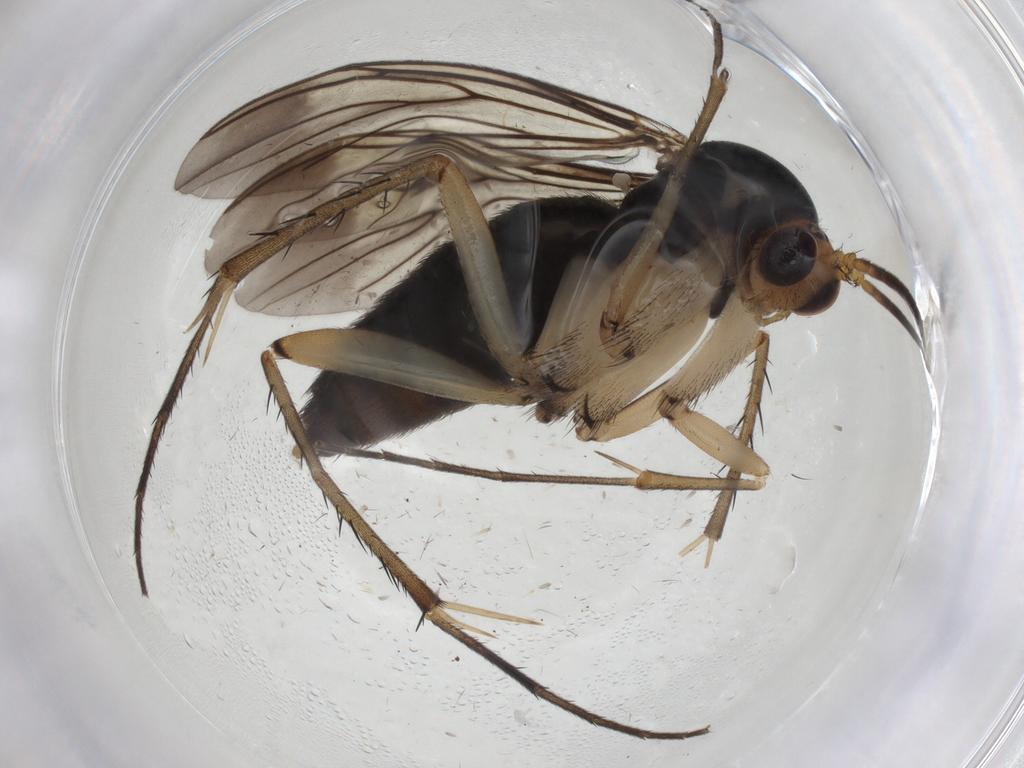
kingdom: Animalia
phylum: Arthropoda
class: Insecta
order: Diptera
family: Mycetophilidae
